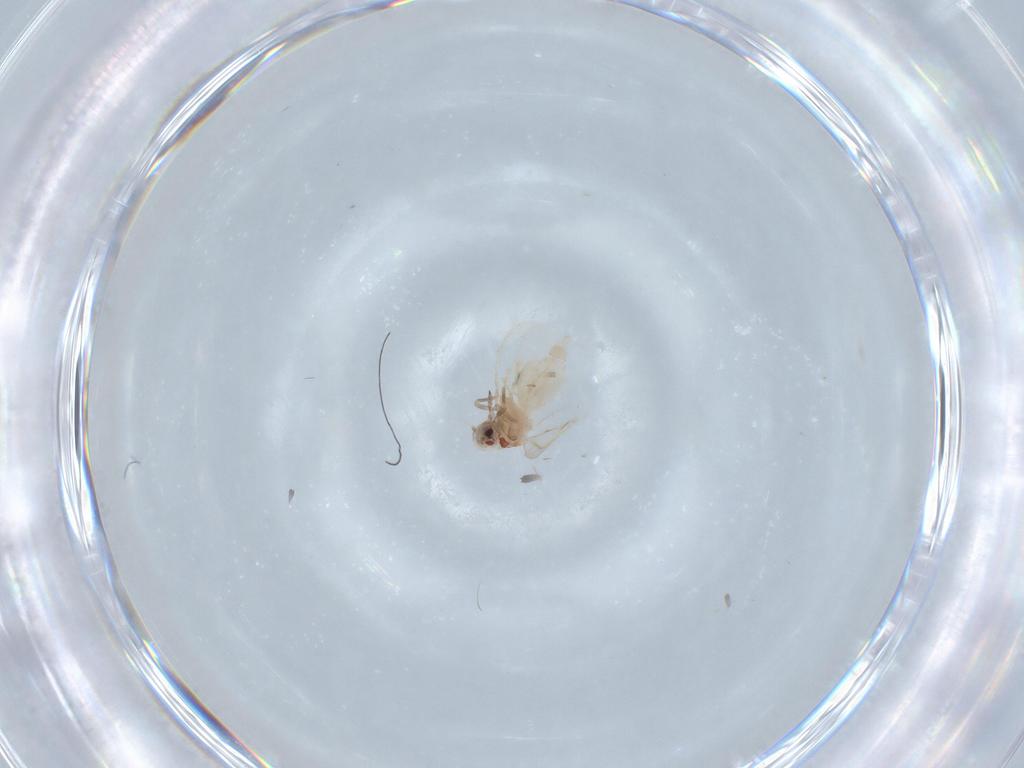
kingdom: Animalia
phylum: Arthropoda
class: Insecta
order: Hemiptera
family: Aleyrodidae
